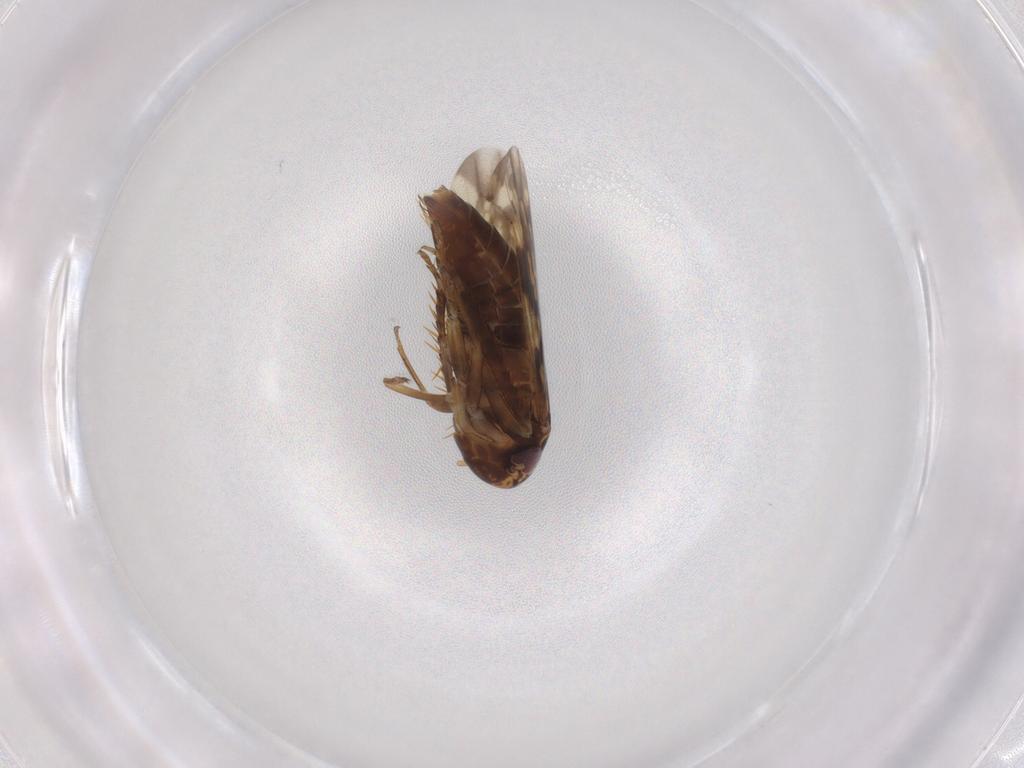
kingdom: Animalia
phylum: Arthropoda
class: Insecta
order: Hemiptera
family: Cicadellidae
